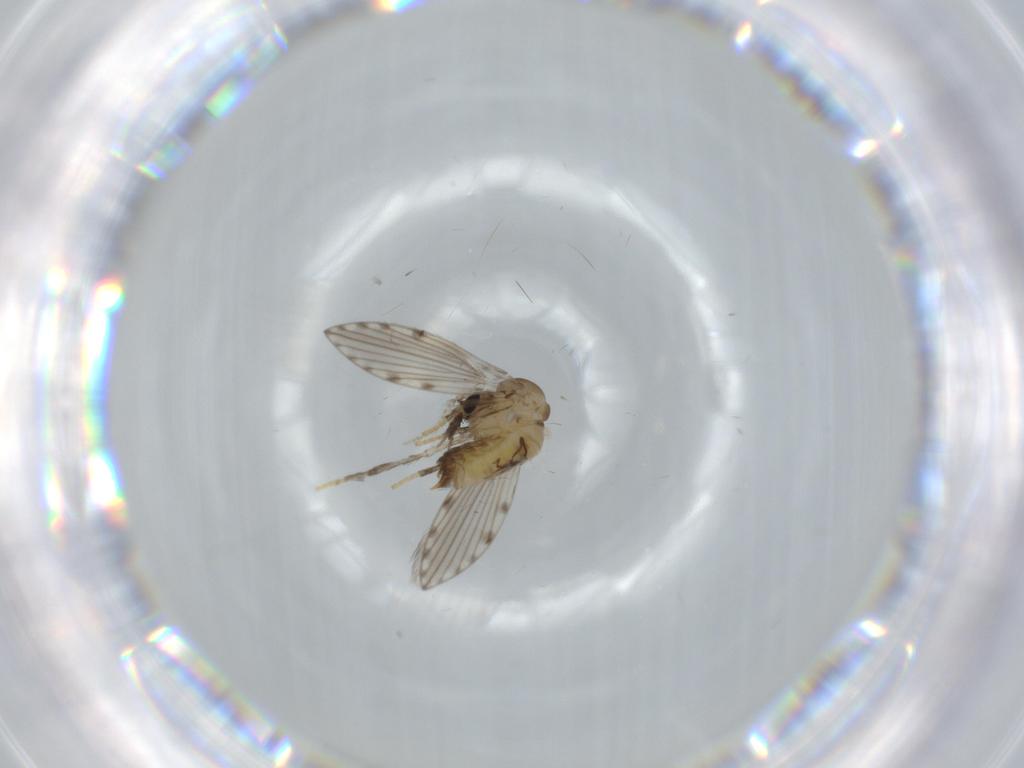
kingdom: Animalia
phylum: Arthropoda
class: Insecta
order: Diptera
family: Psychodidae
